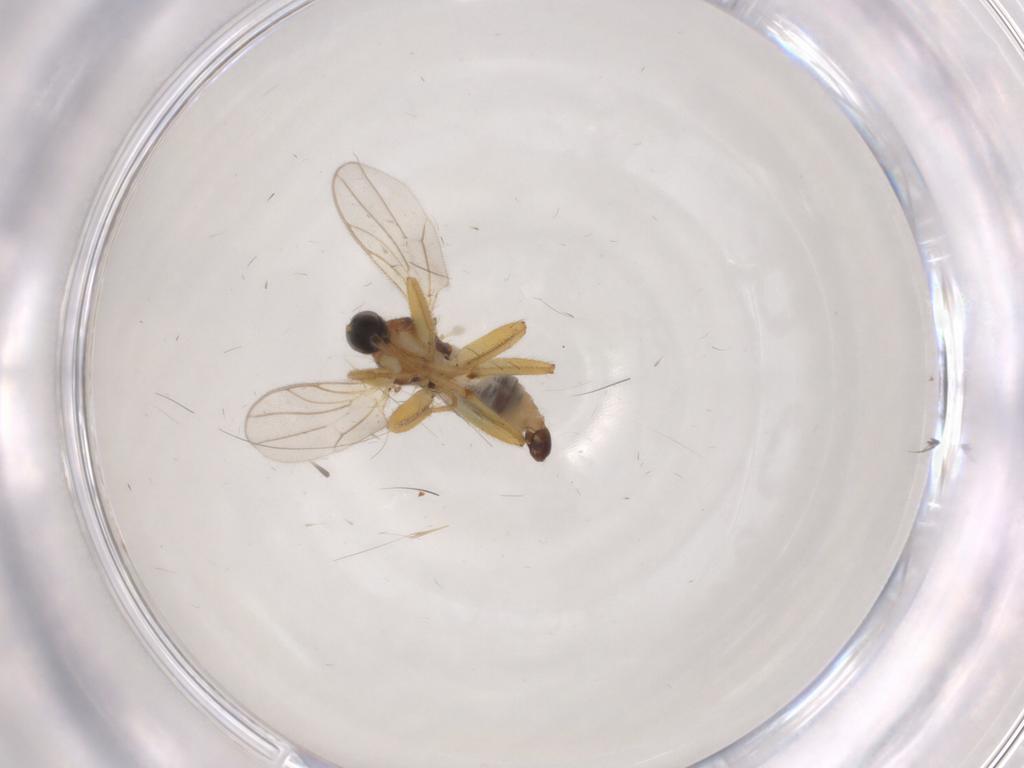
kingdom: Animalia
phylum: Arthropoda
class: Insecta
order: Diptera
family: Hybotidae
